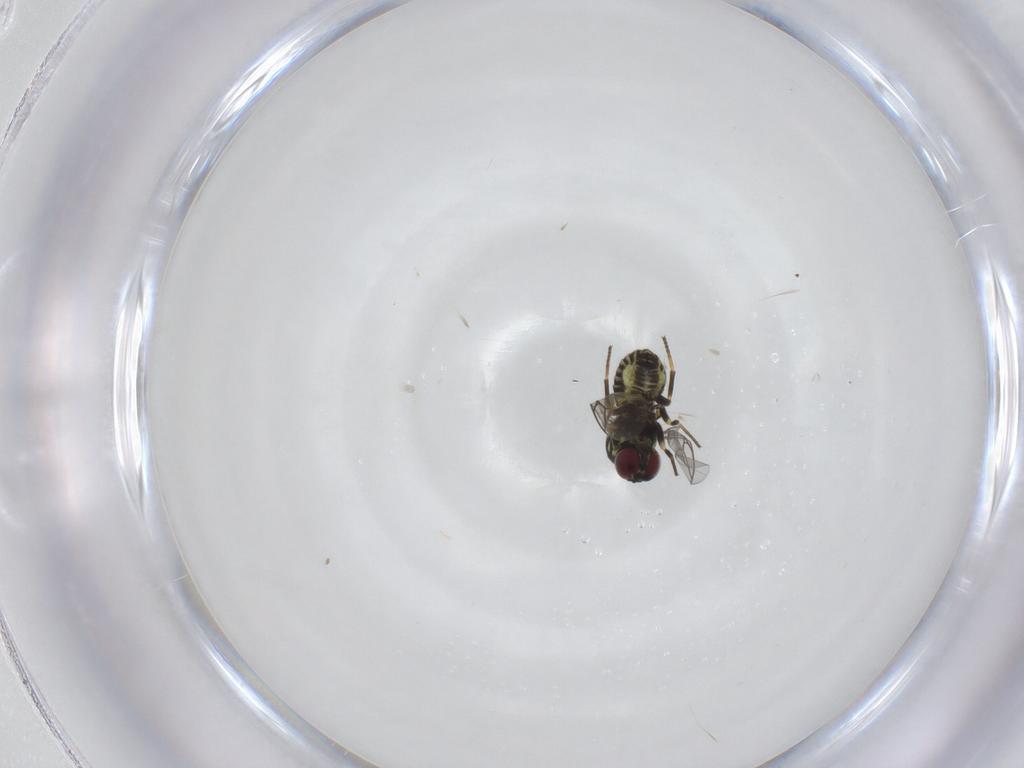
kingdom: Animalia
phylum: Arthropoda
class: Insecta
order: Diptera
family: Mythicomyiidae
